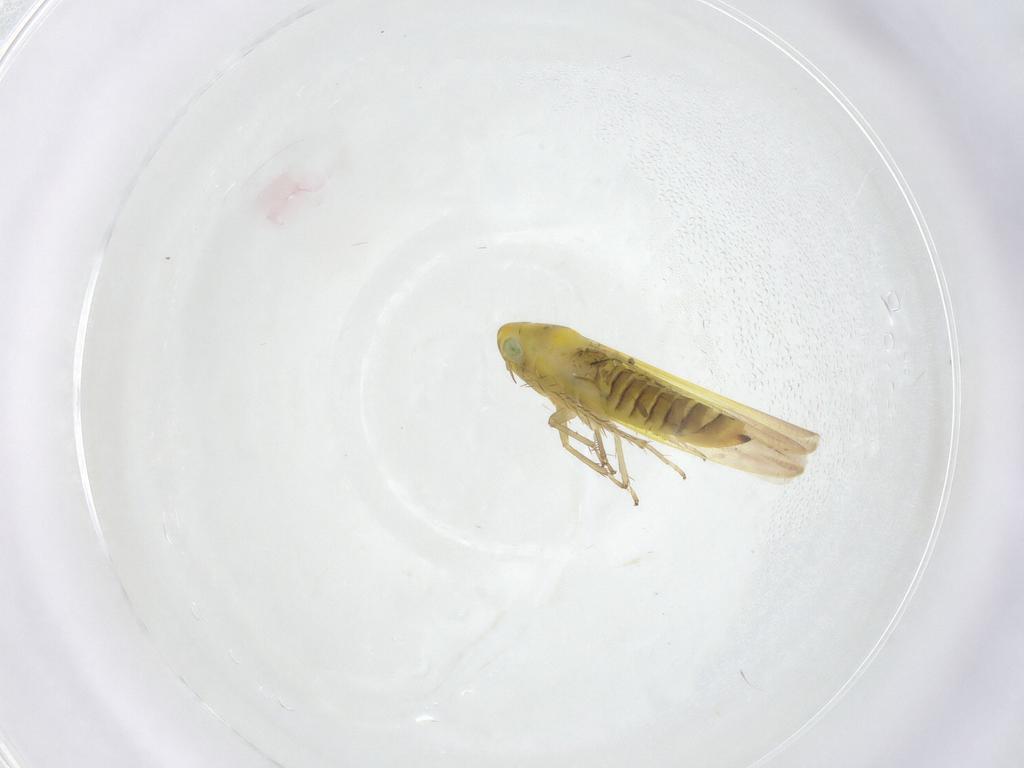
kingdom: Animalia
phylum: Arthropoda
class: Insecta
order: Hemiptera
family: Cicadellidae
